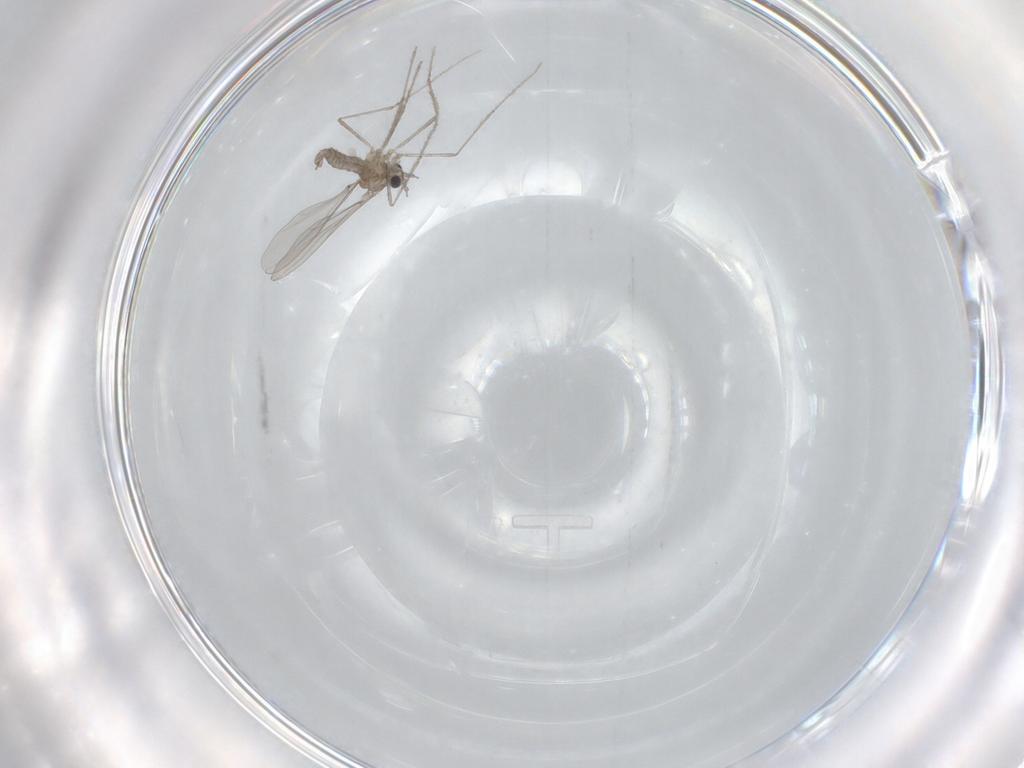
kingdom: Animalia
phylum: Arthropoda
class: Insecta
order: Diptera
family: Cecidomyiidae
